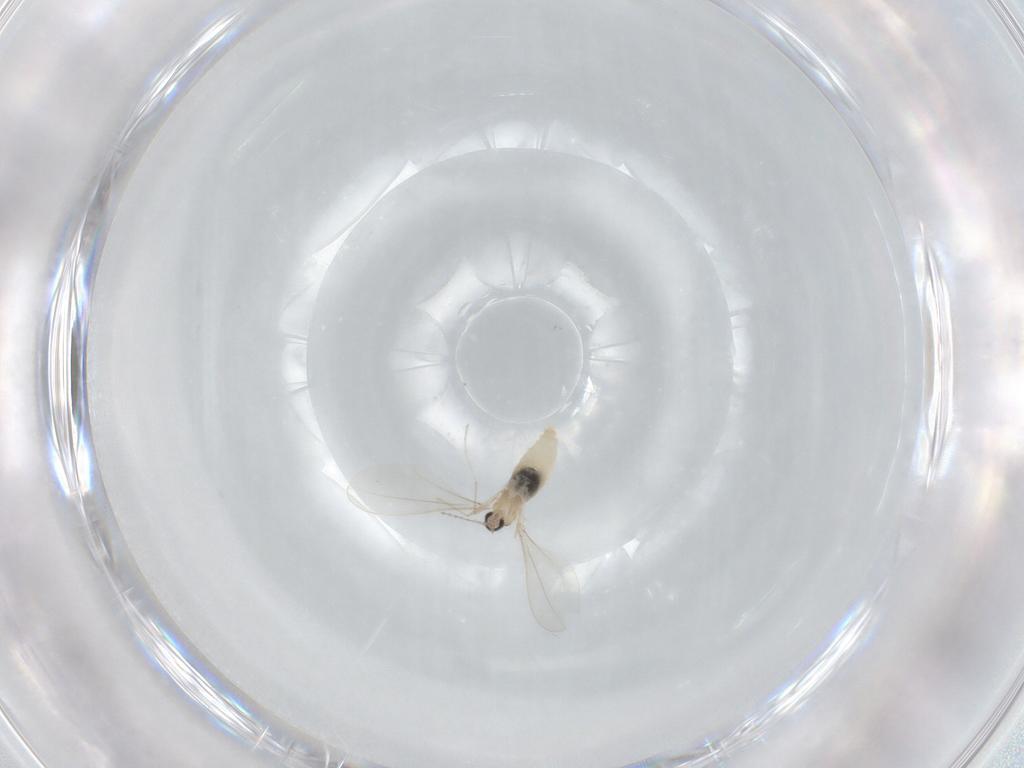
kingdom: Animalia
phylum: Arthropoda
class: Insecta
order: Diptera
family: Cecidomyiidae
